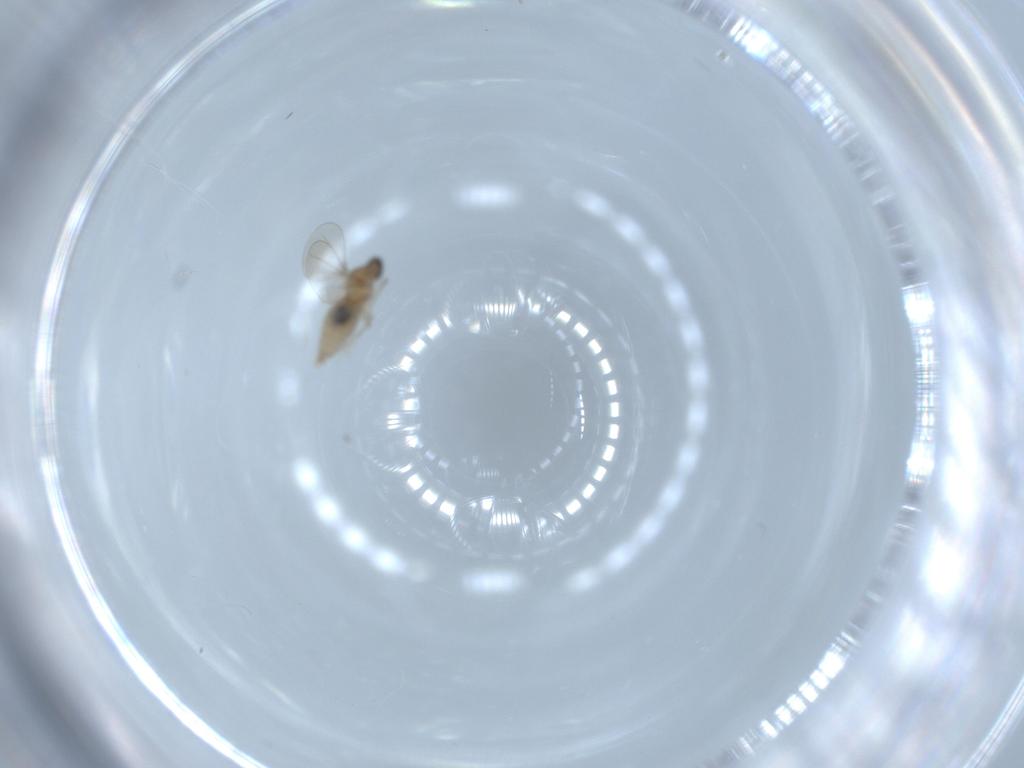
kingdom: Animalia
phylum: Arthropoda
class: Insecta
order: Diptera
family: Cecidomyiidae
